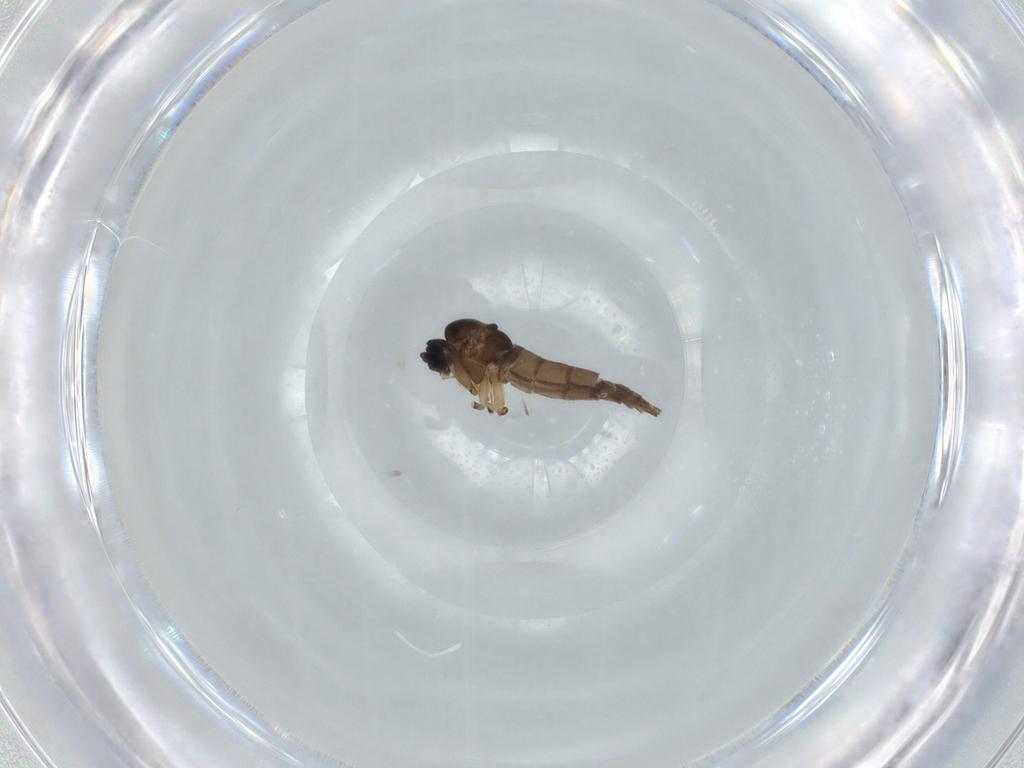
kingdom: Animalia
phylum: Arthropoda
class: Insecta
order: Diptera
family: Sciaridae
